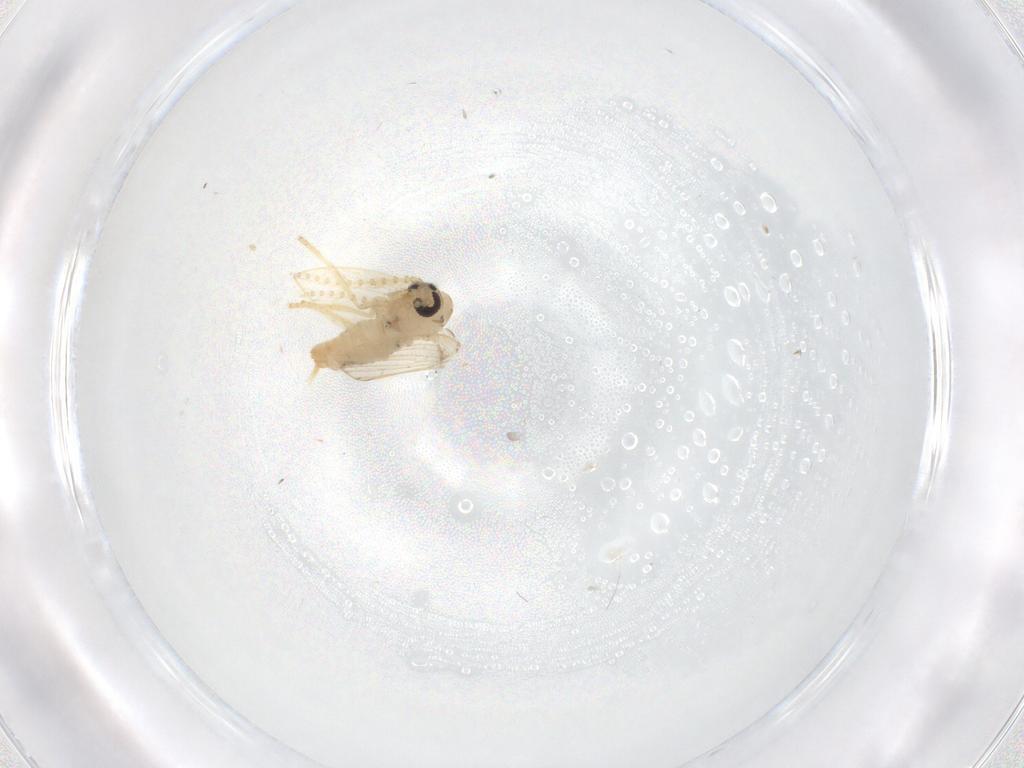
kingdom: Animalia
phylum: Arthropoda
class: Insecta
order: Diptera
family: Psychodidae
